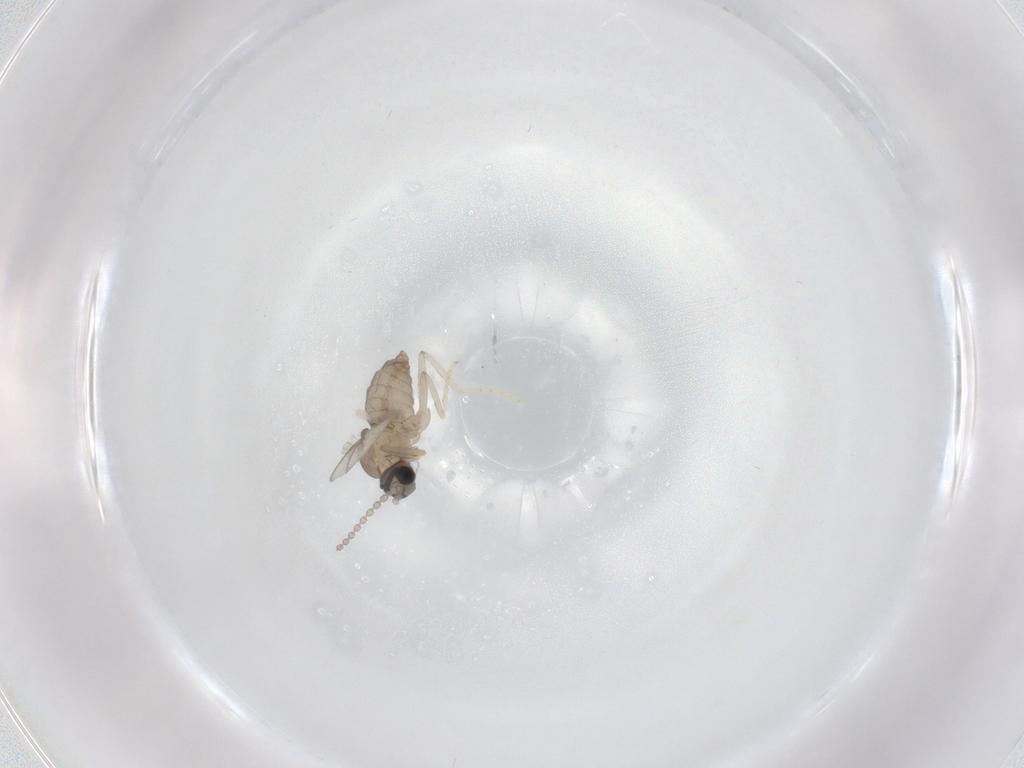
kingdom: Animalia
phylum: Arthropoda
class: Insecta
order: Diptera
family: Cecidomyiidae
